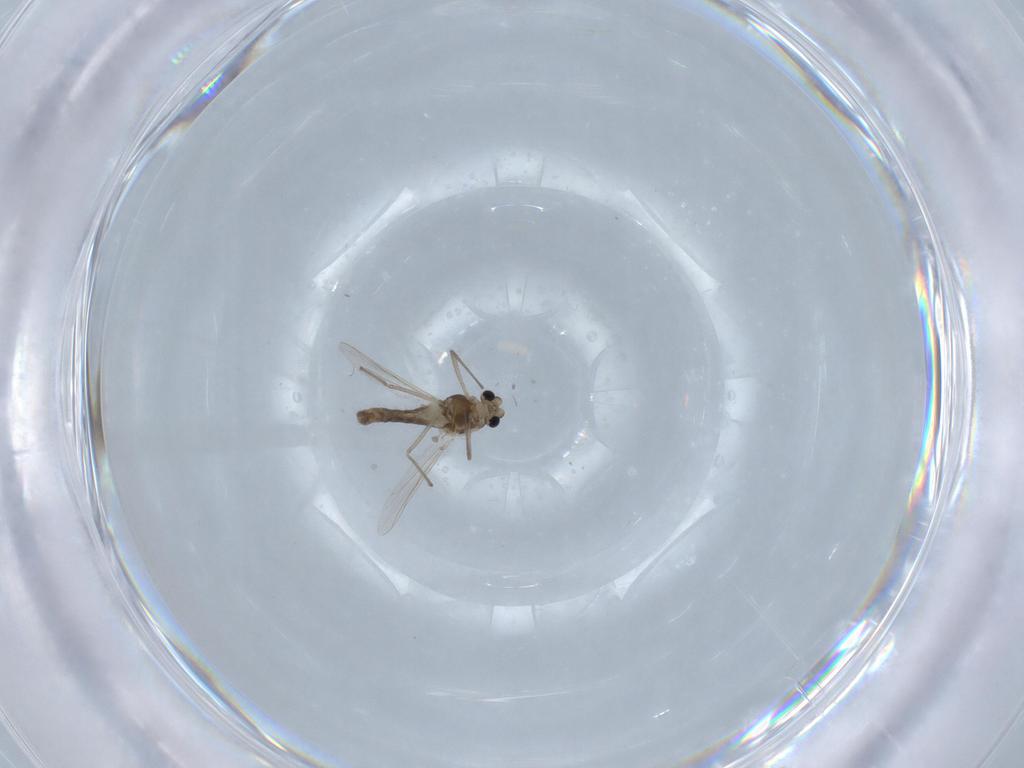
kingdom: Animalia
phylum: Arthropoda
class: Insecta
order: Diptera
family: Chironomidae
